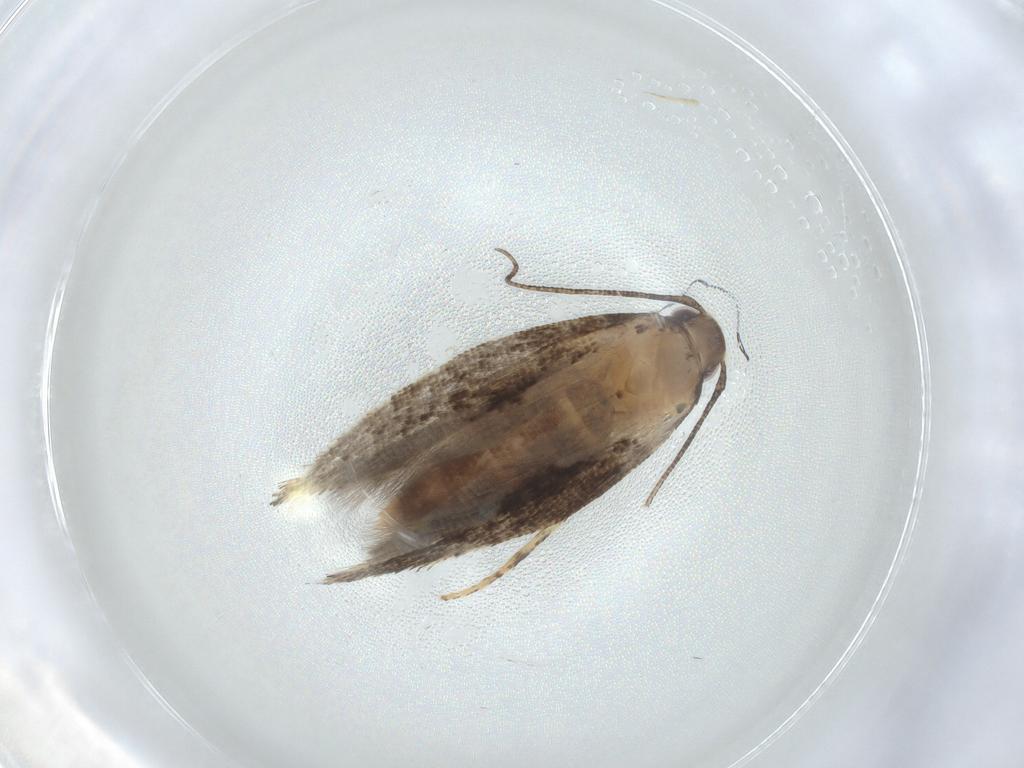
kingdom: Animalia
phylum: Arthropoda
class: Insecta
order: Lepidoptera
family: Gelechiidae
